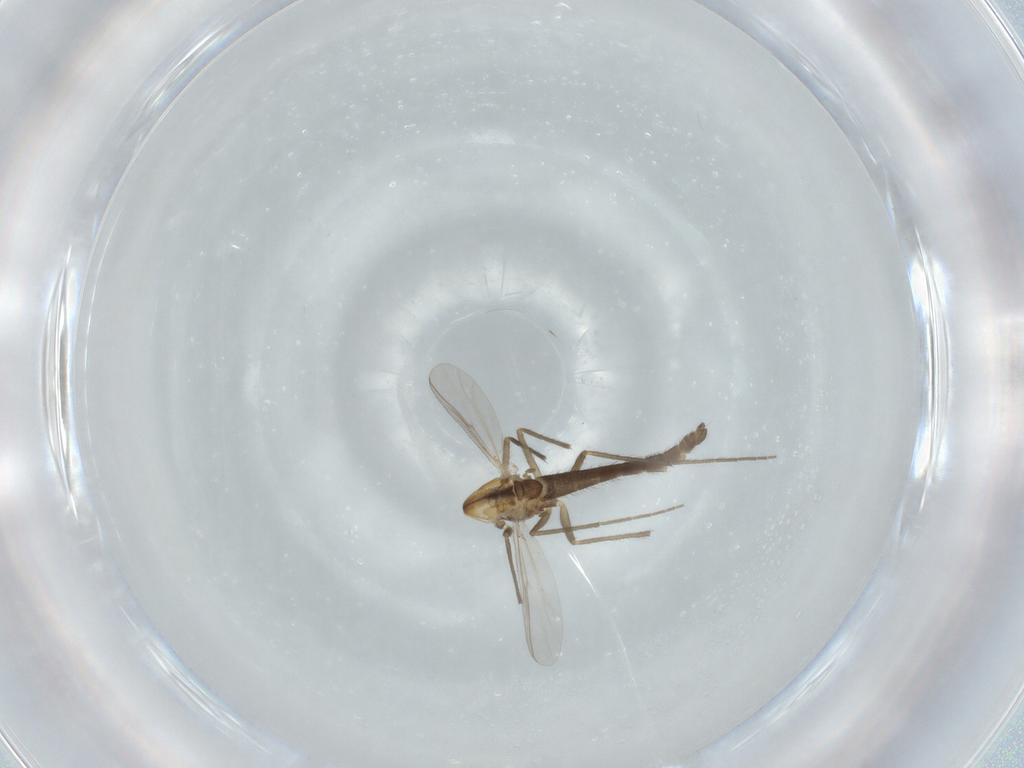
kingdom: Animalia
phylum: Arthropoda
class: Insecta
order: Diptera
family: Chironomidae
